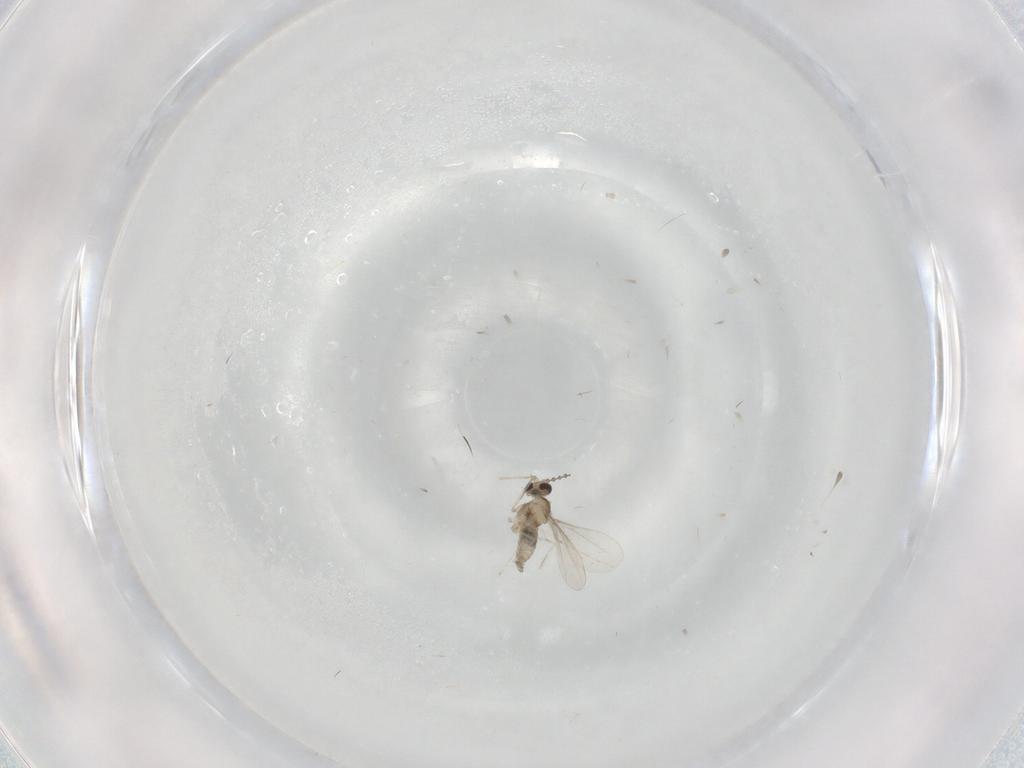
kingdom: Animalia
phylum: Arthropoda
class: Insecta
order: Diptera
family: Cecidomyiidae
